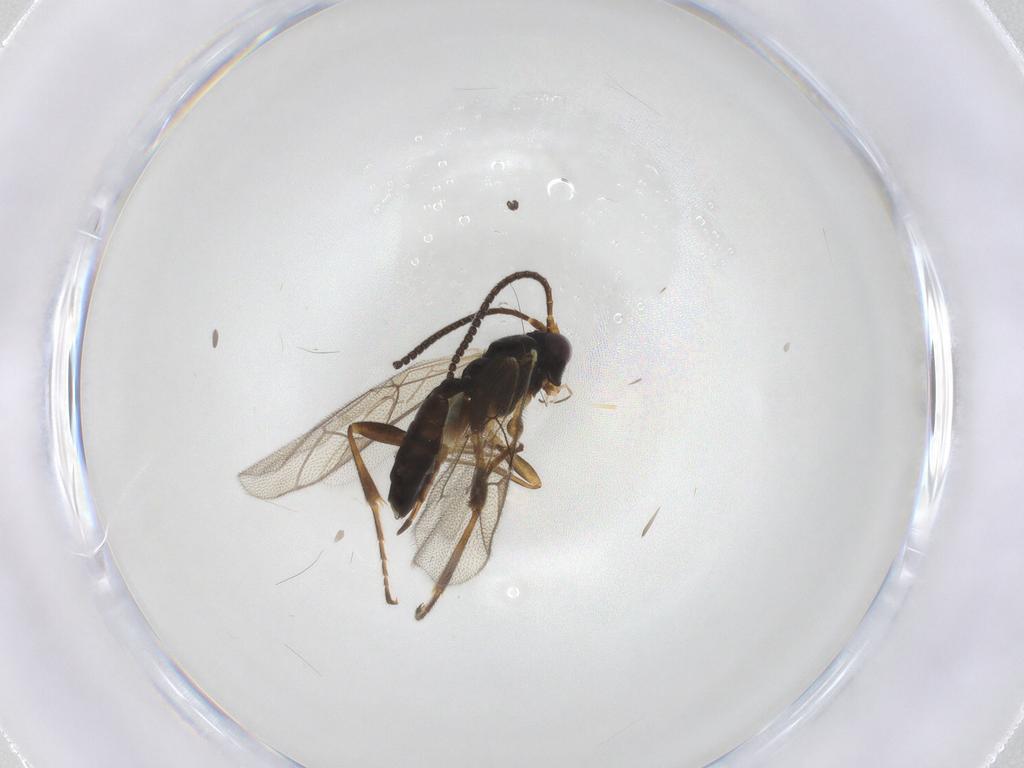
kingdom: Animalia
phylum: Arthropoda
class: Insecta
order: Hymenoptera
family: Ichneumonidae
